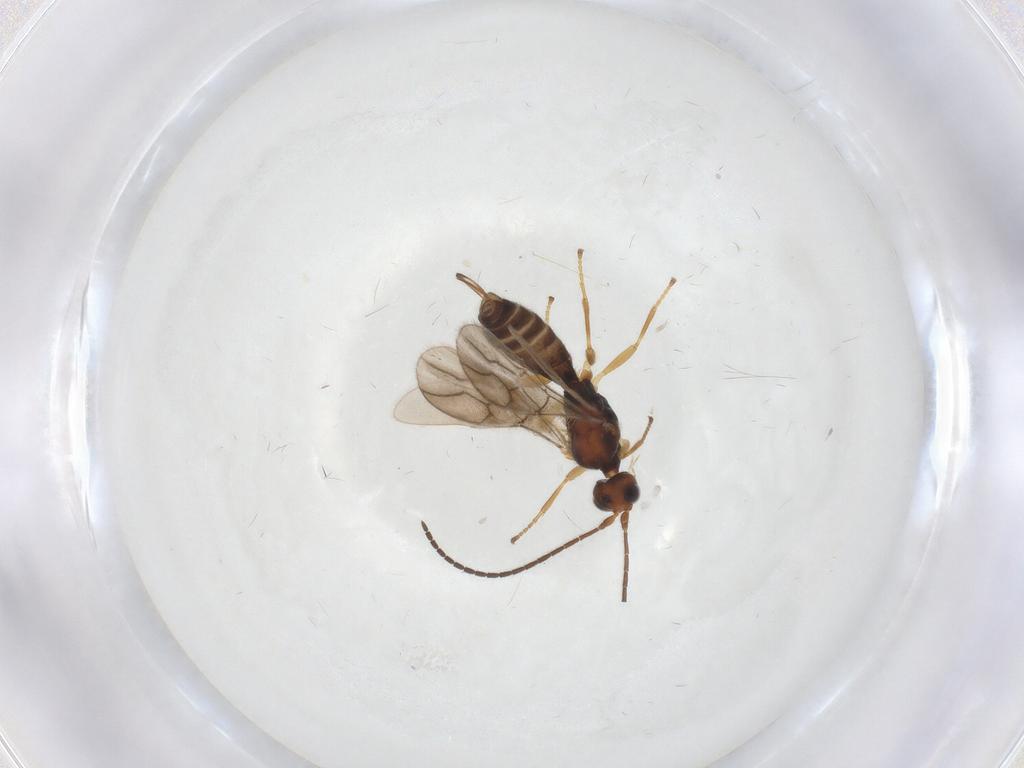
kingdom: Animalia
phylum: Arthropoda
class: Insecta
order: Hymenoptera
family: Braconidae
